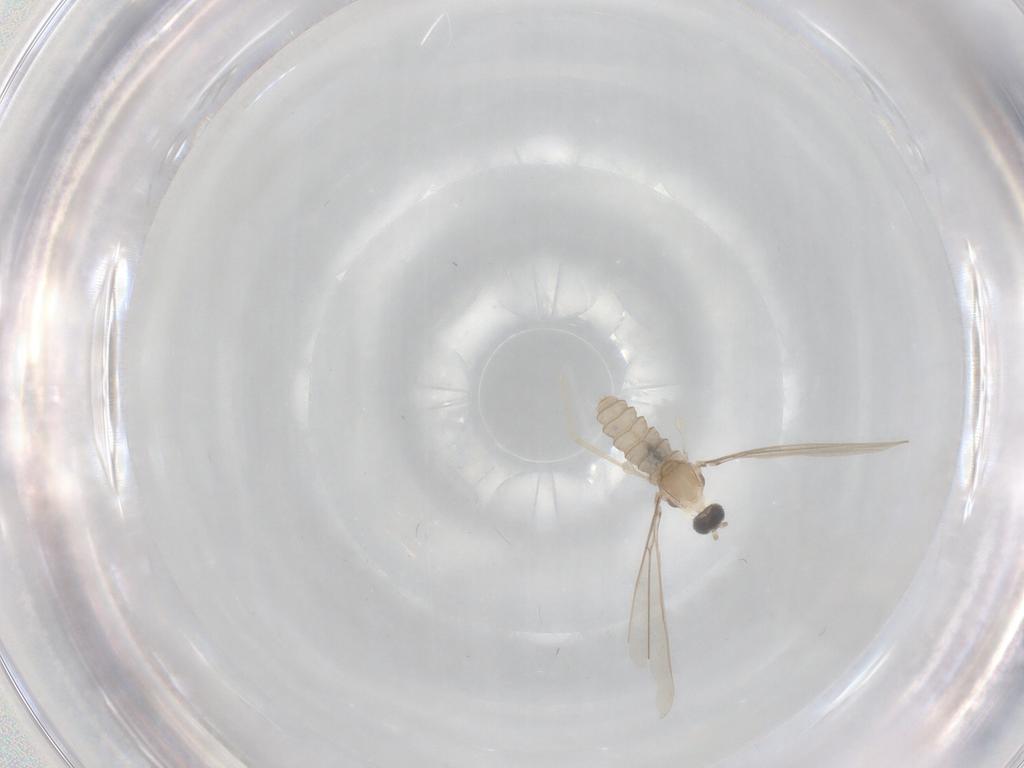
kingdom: Animalia
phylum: Arthropoda
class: Insecta
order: Diptera
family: Cecidomyiidae
